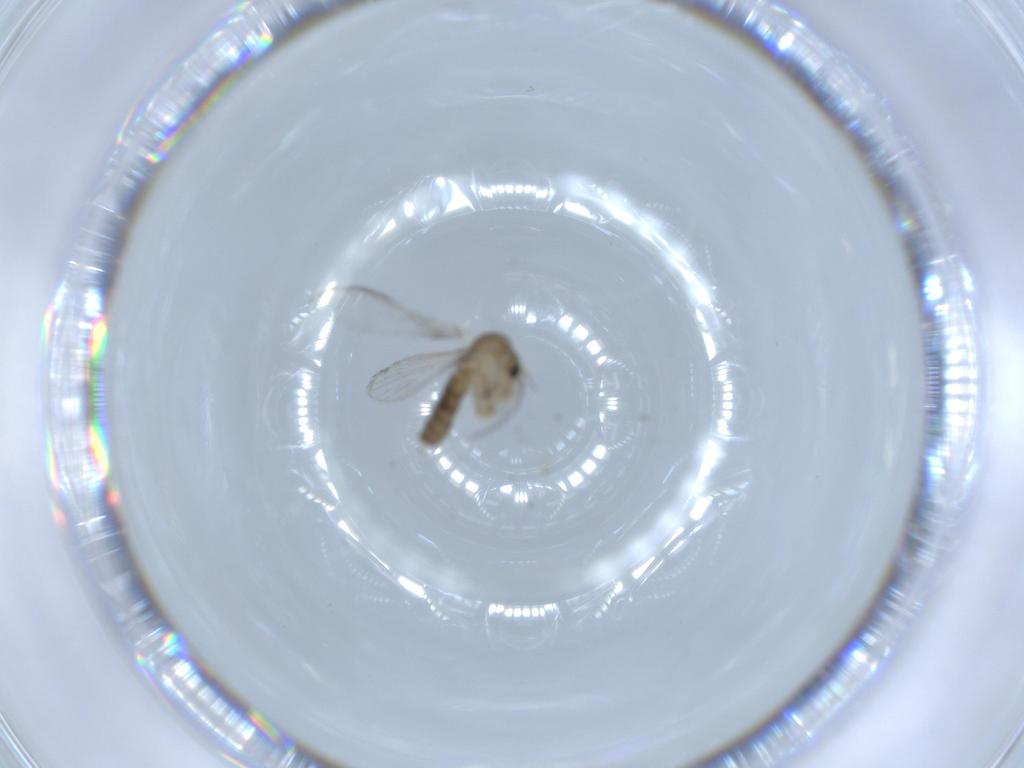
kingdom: Animalia
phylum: Arthropoda
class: Insecta
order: Diptera
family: Psychodidae
